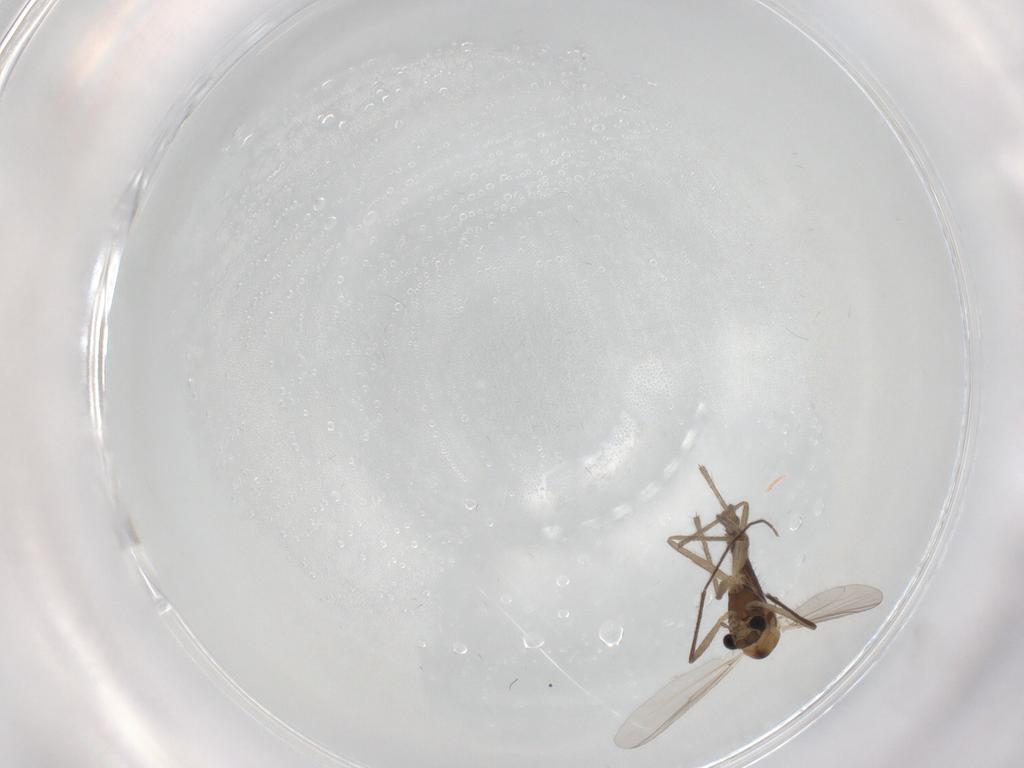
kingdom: Animalia
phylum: Arthropoda
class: Insecta
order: Diptera
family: Chironomidae
